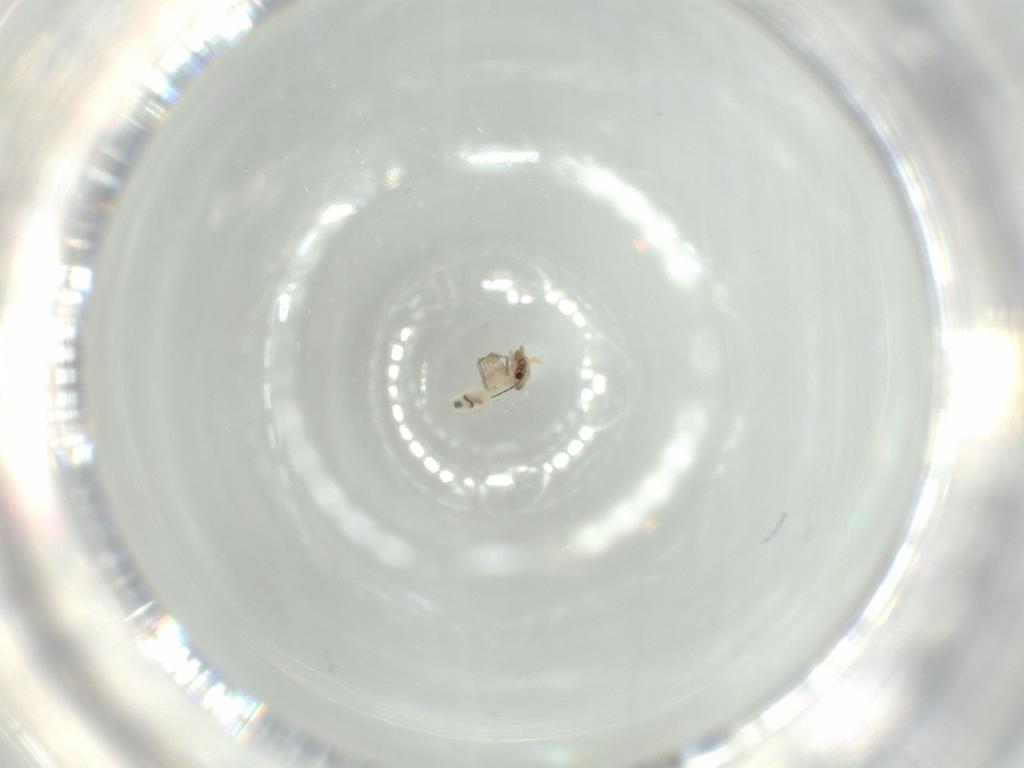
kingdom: Animalia
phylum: Arthropoda
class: Insecta
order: Psocodea
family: Lepidopsocidae
